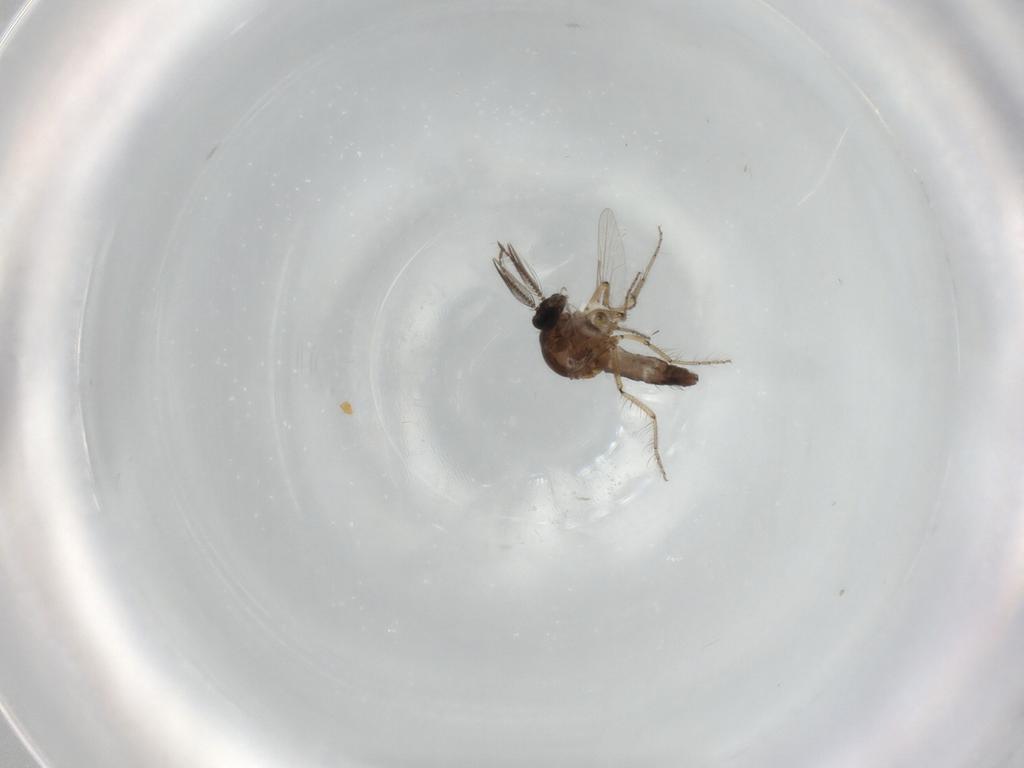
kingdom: Animalia
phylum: Arthropoda
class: Insecta
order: Diptera
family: Ceratopogonidae
